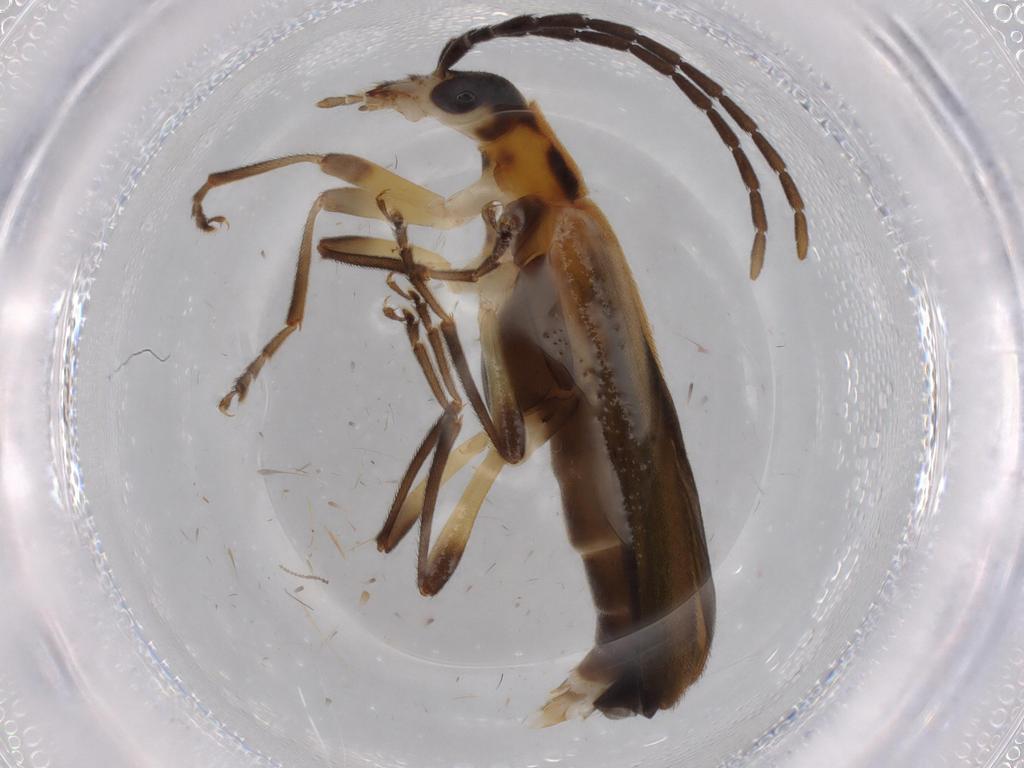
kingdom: Animalia
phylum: Arthropoda
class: Insecta
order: Coleoptera
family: Oedemeridae
